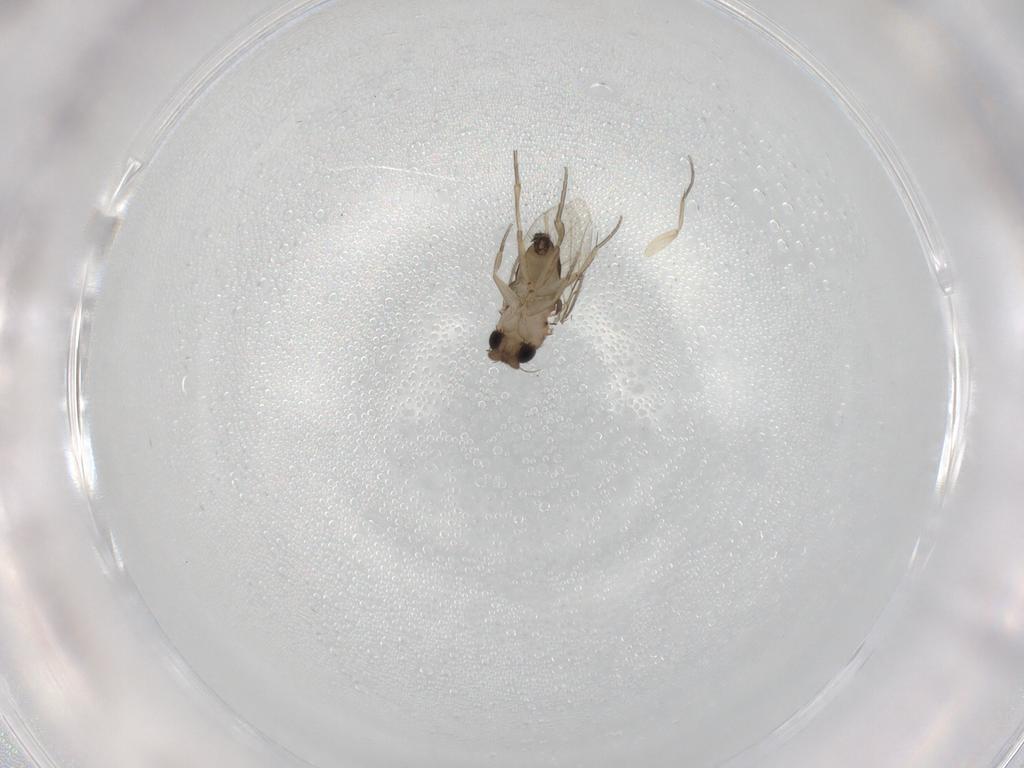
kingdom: Animalia
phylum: Arthropoda
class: Insecta
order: Diptera
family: Phoridae
